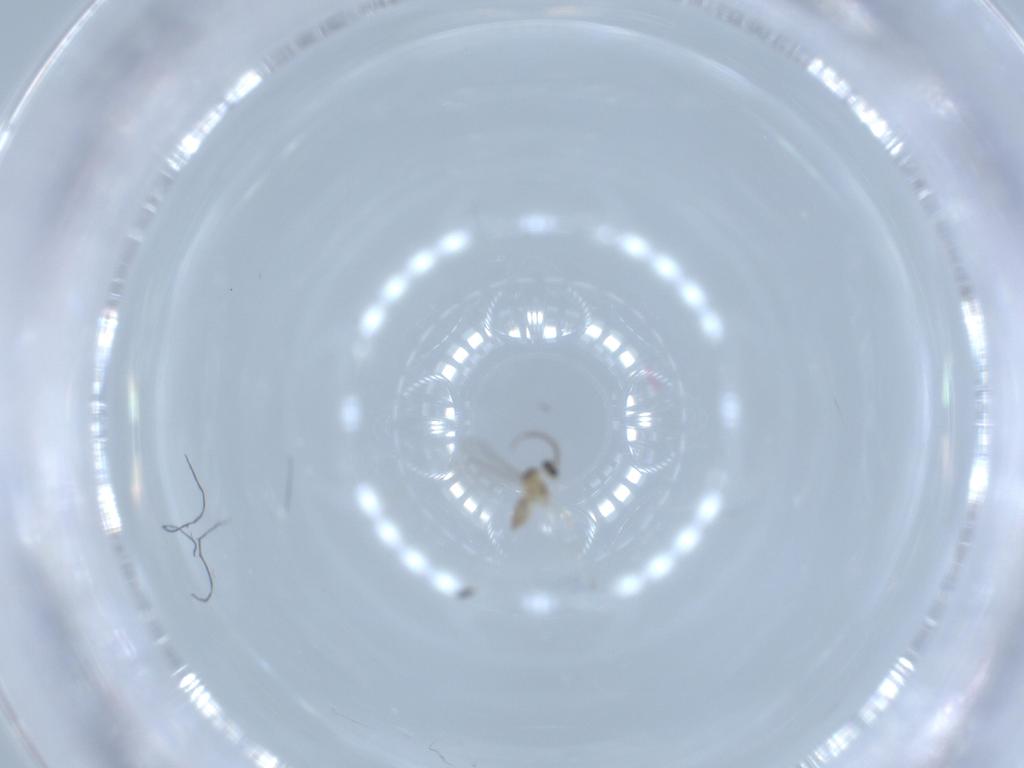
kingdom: Animalia
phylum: Arthropoda
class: Insecta
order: Diptera
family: Cecidomyiidae
